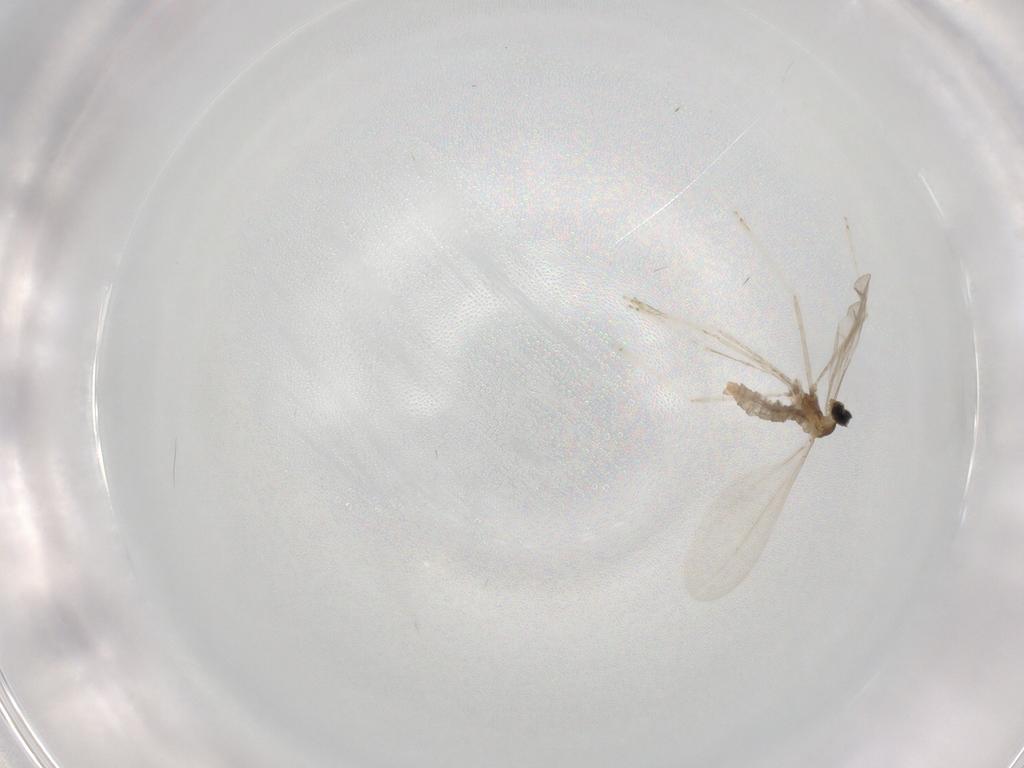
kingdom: Animalia
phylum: Arthropoda
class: Insecta
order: Diptera
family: Cecidomyiidae
